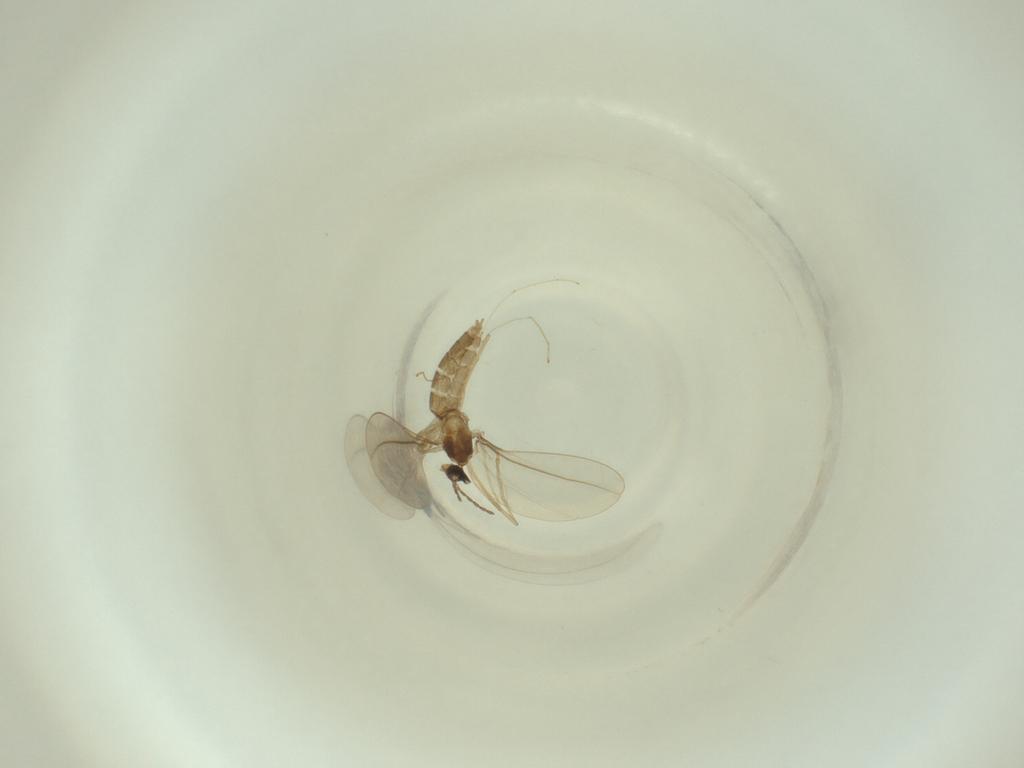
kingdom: Animalia
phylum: Arthropoda
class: Insecta
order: Diptera
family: Cecidomyiidae
